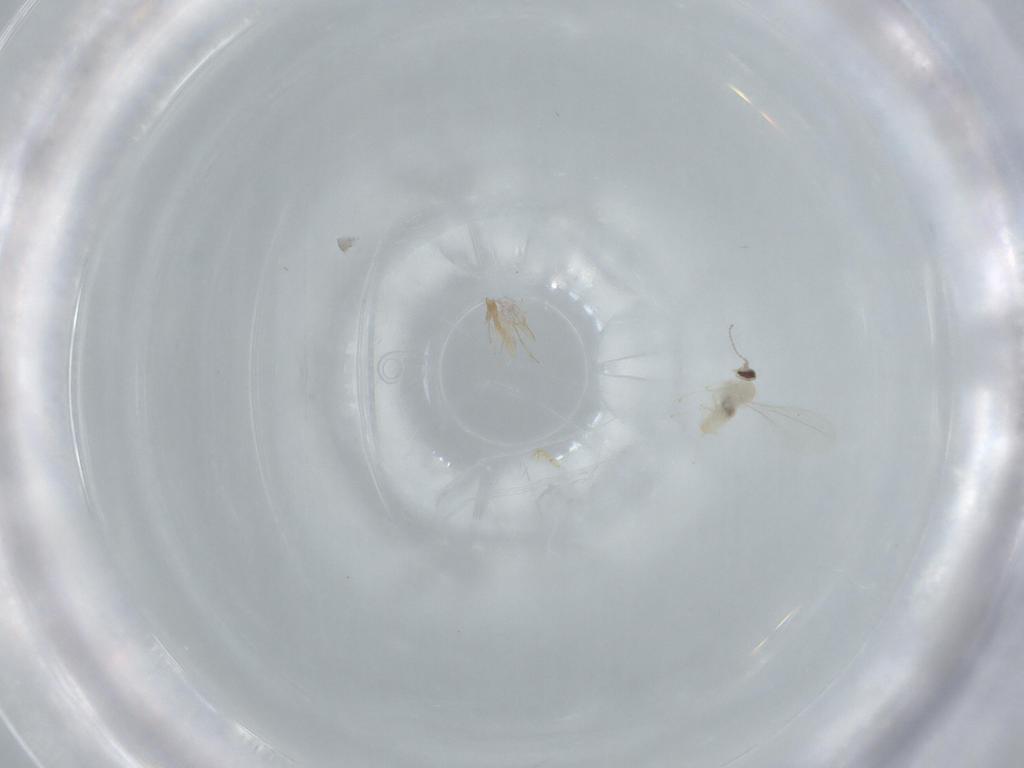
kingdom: Animalia
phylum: Arthropoda
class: Insecta
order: Diptera
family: Cecidomyiidae
